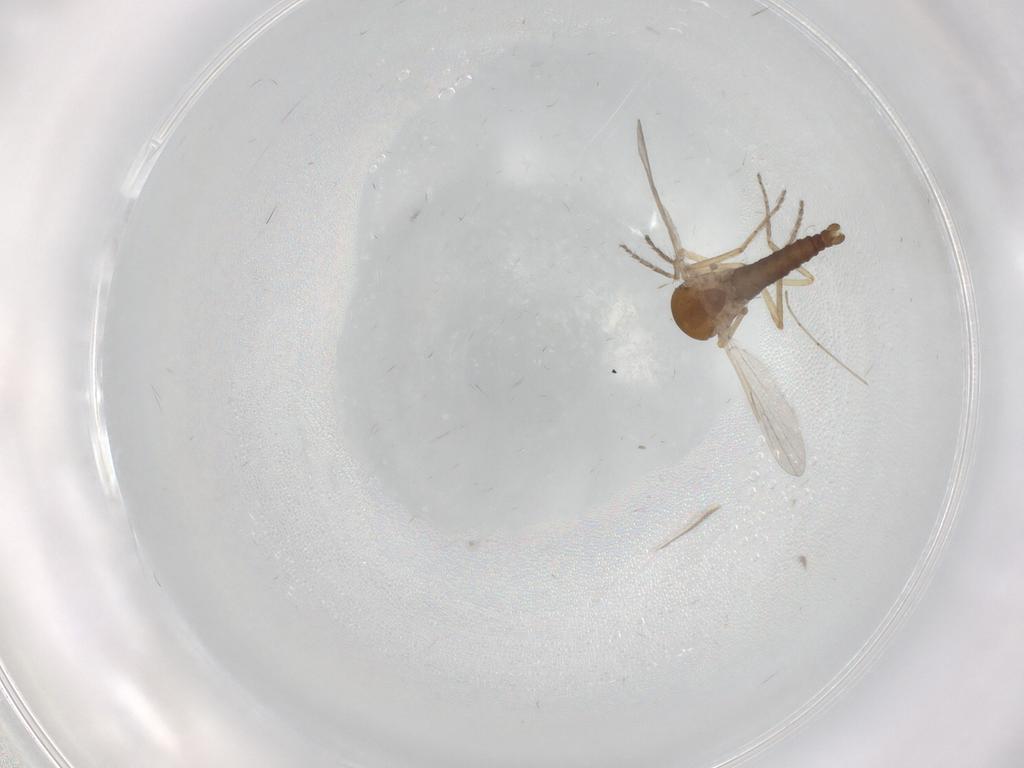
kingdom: Animalia
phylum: Arthropoda
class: Insecta
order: Diptera
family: Ceratopogonidae
